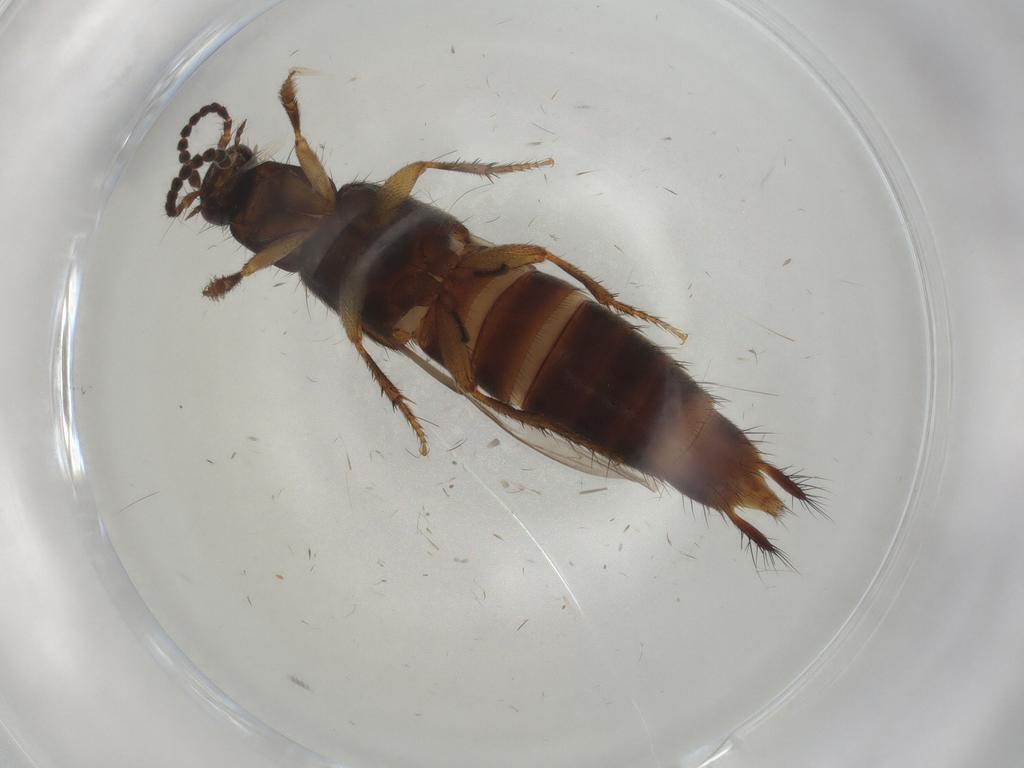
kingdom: Animalia
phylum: Arthropoda
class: Insecta
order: Coleoptera
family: Staphylinidae
